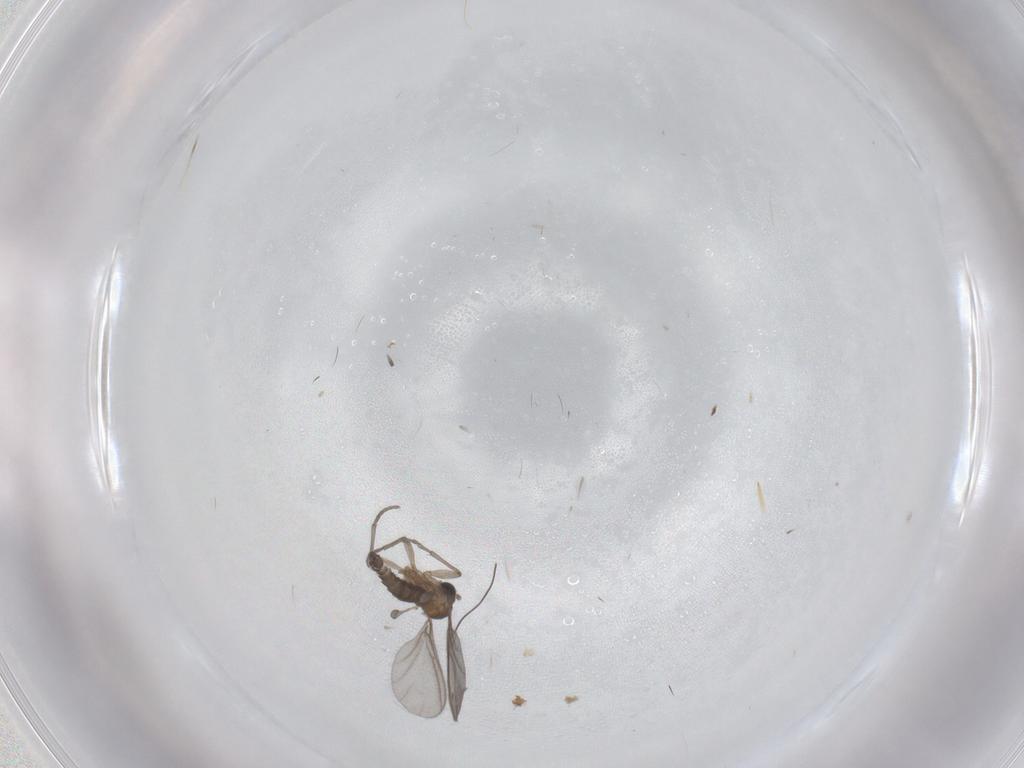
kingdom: Animalia
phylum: Arthropoda
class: Insecta
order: Diptera
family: Sciaridae
